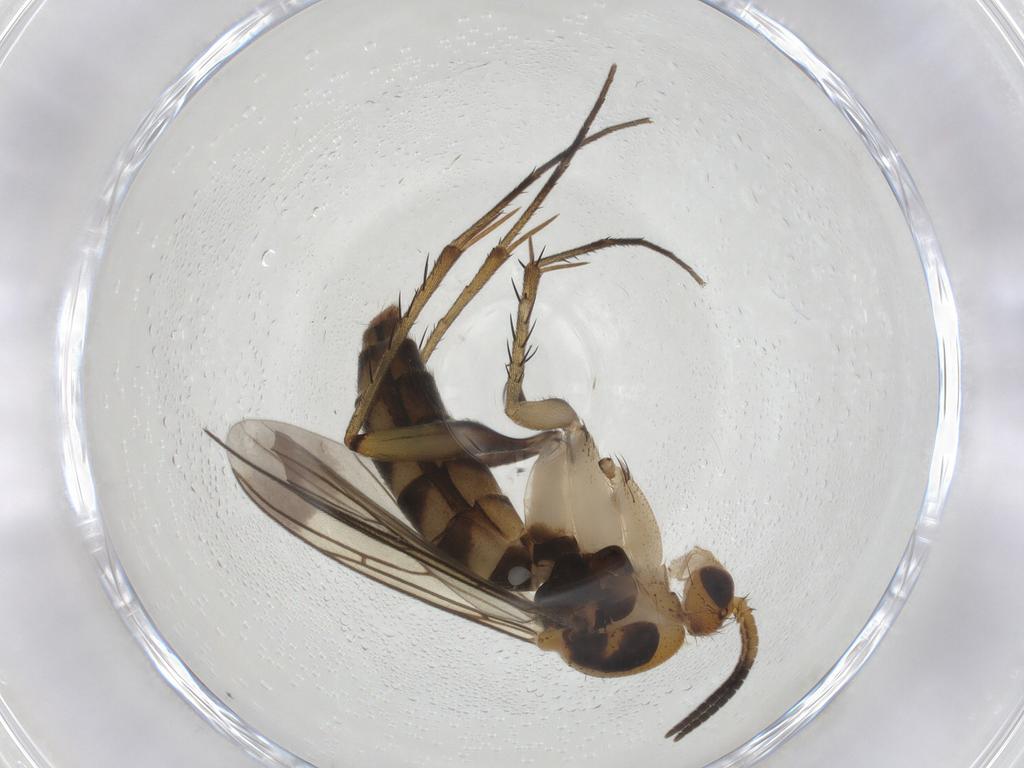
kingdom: Animalia
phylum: Arthropoda
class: Insecta
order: Diptera
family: Mycetophilidae
